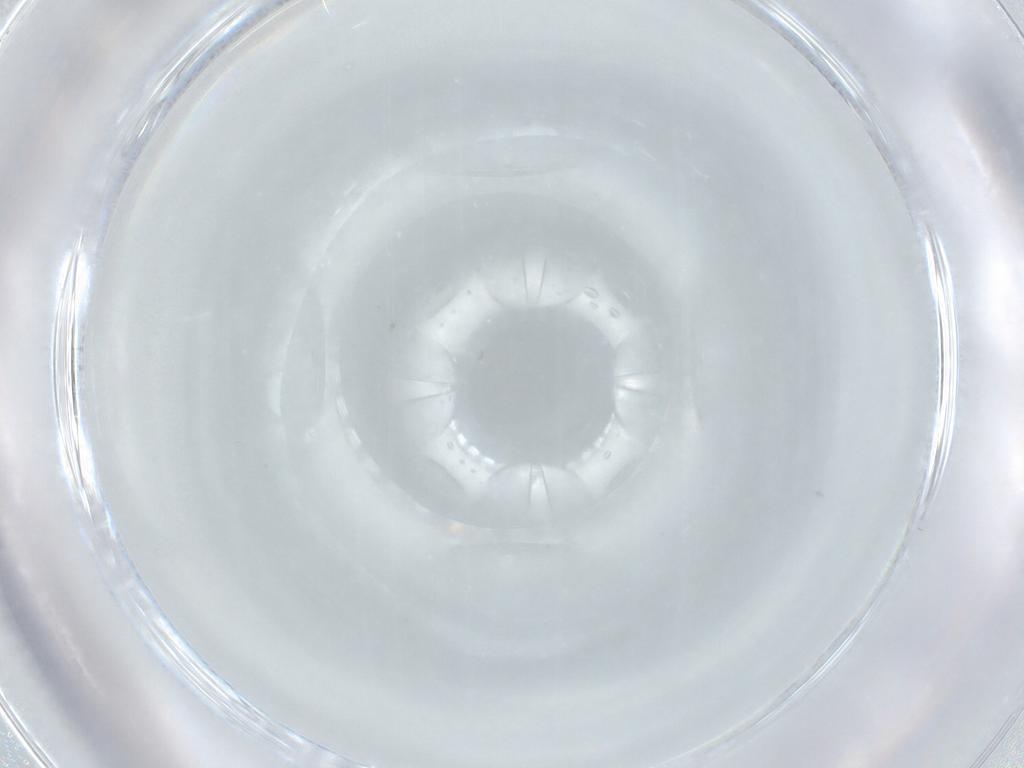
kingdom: Animalia
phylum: Arthropoda
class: Insecta
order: Hymenoptera
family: Formicidae
